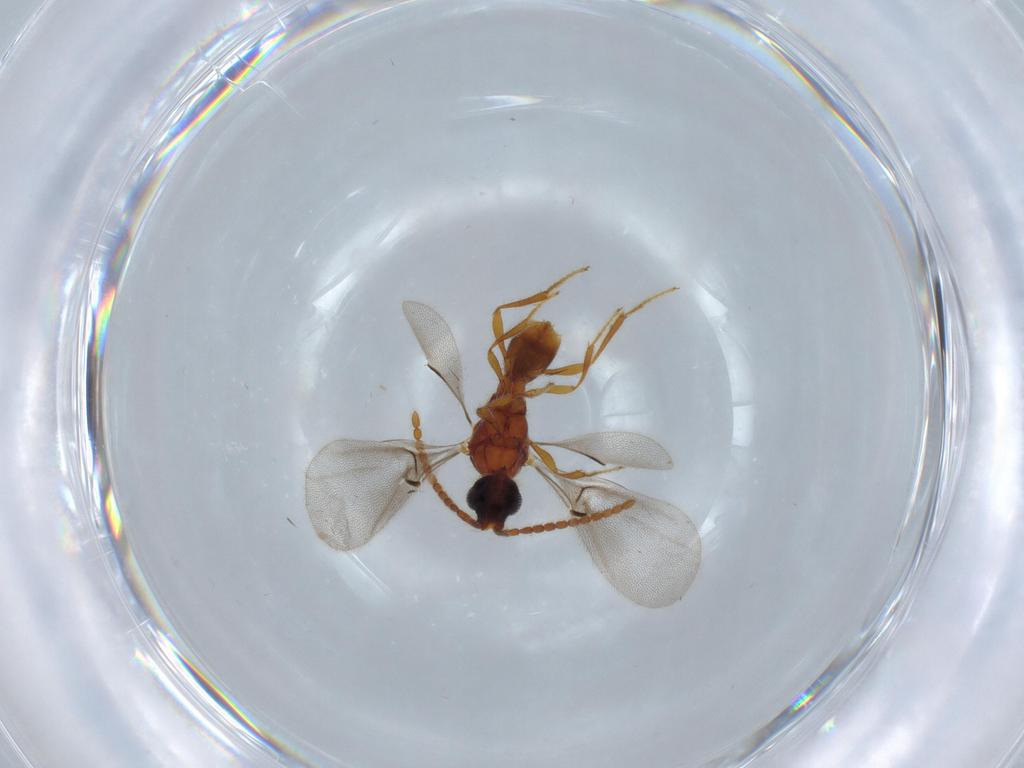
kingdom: Animalia
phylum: Arthropoda
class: Insecta
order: Hymenoptera
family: Diapriidae
